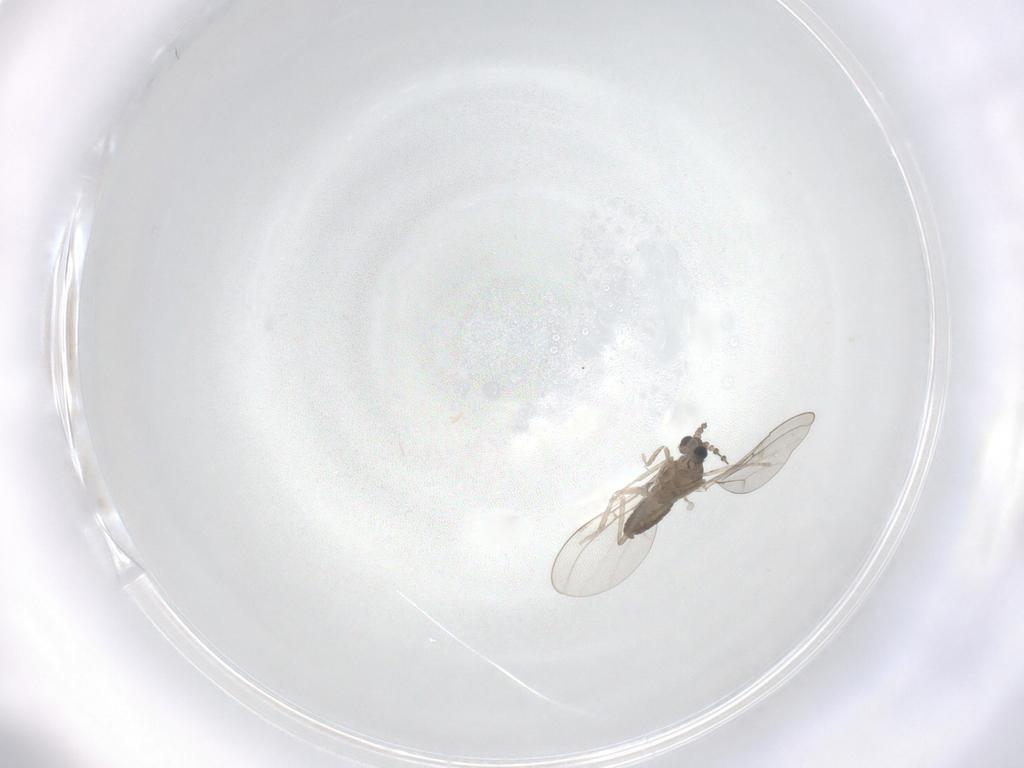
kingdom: Animalia
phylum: Arthropoda
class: Insecta
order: Diptera
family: Cecidomyiidae
